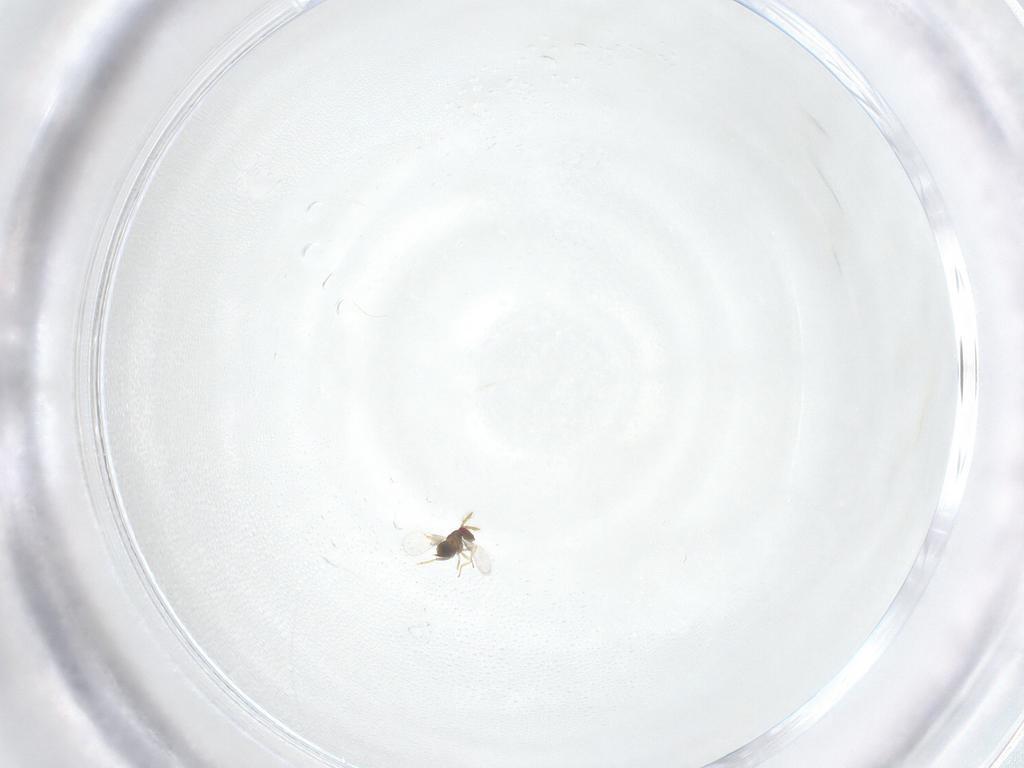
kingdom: Animalia
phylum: Arthropoda
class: Insecta
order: Hymenoptera
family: Trichogrammatidae
